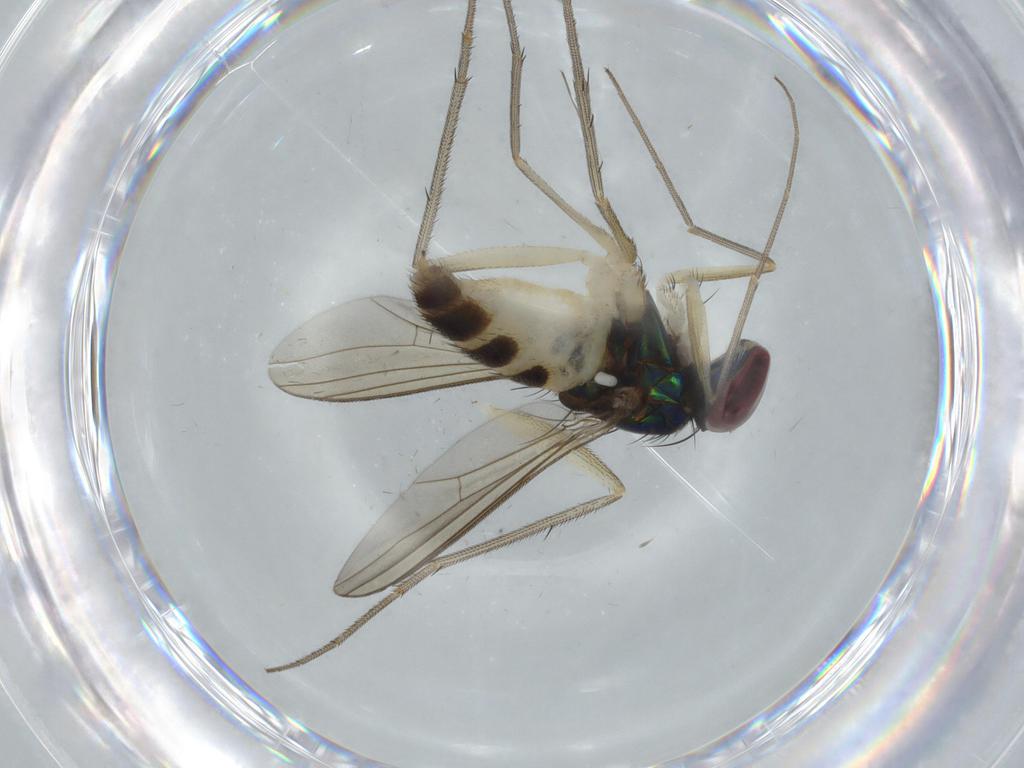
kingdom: Animalia
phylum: Arthropoda
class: Insecta
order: Diptera
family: Dolichopodidae
